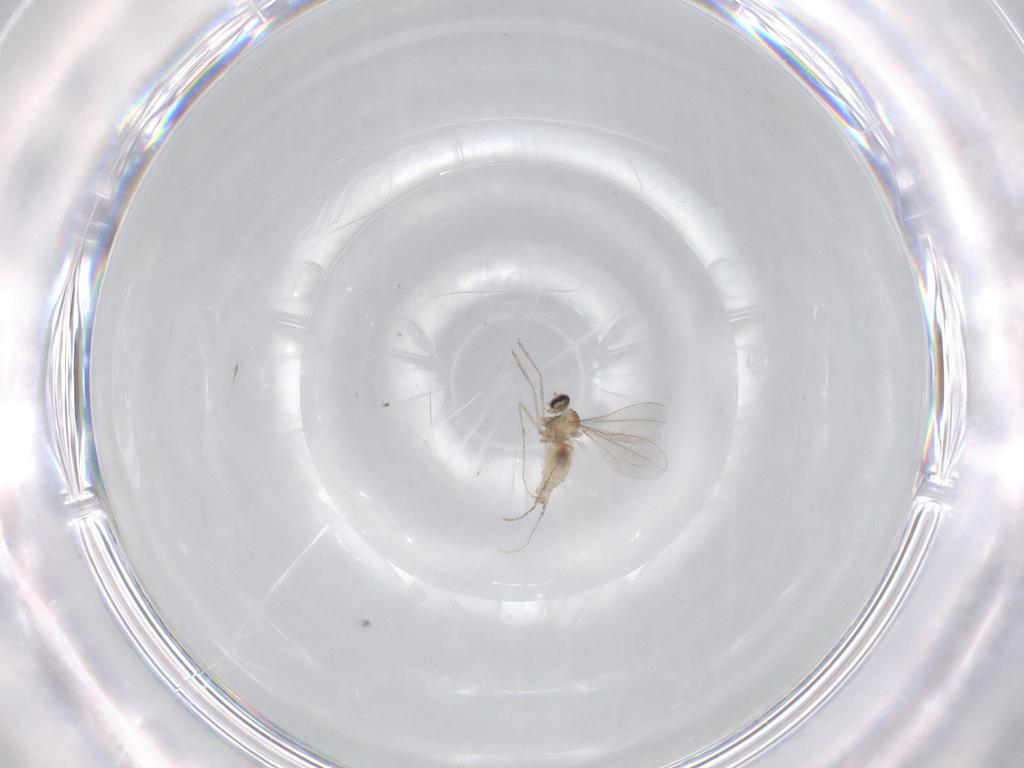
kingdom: Animalia
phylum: Arthropoda
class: Insecta
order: Diptera
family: Cecidomyiidae
